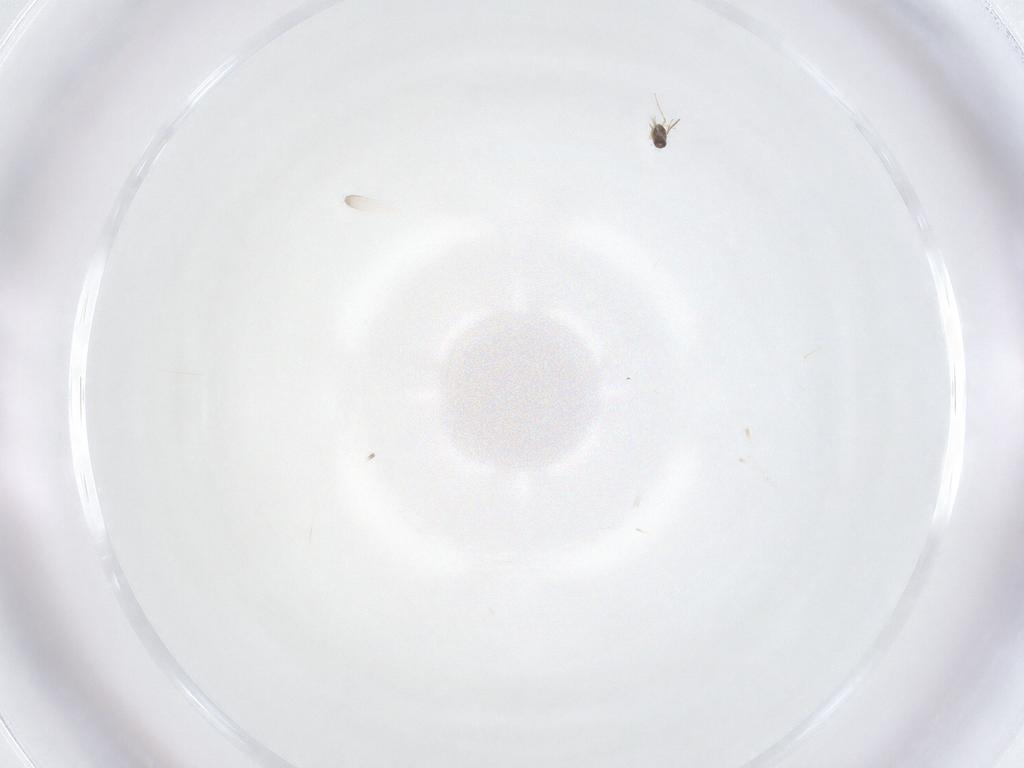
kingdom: Animalia
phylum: Arthropoda
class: Insecta
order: Hymenoptera
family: Mymaridae
